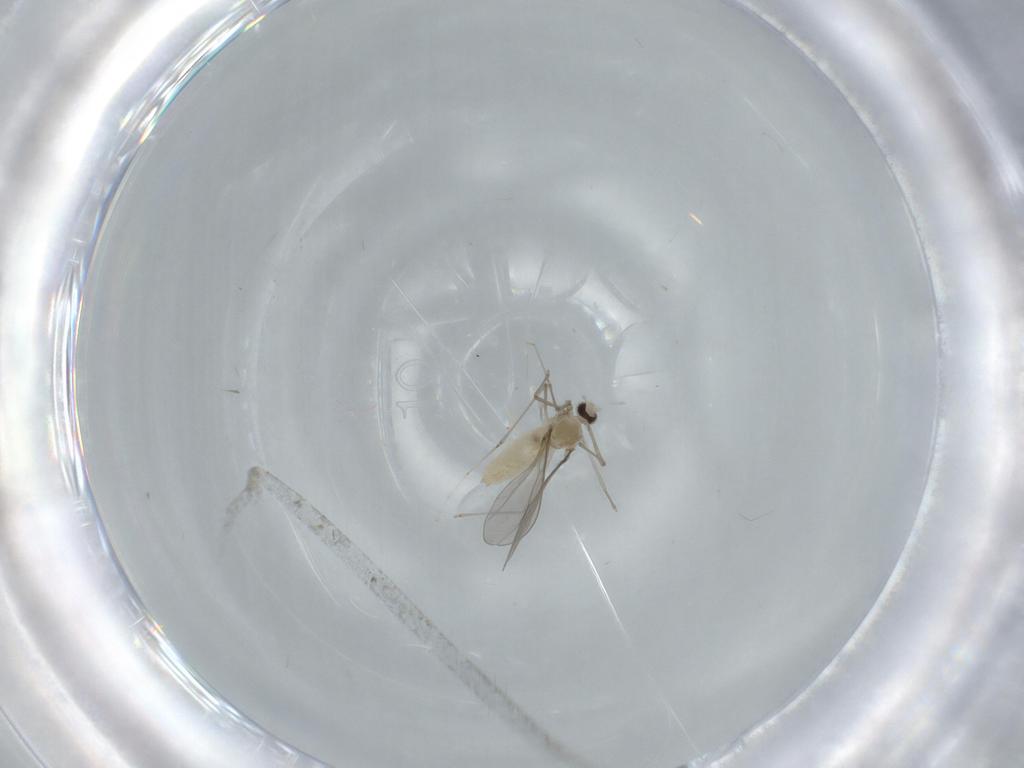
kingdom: Animalia
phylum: Arthropoda
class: Insecta
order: Diptera
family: Cecidomyiidae
